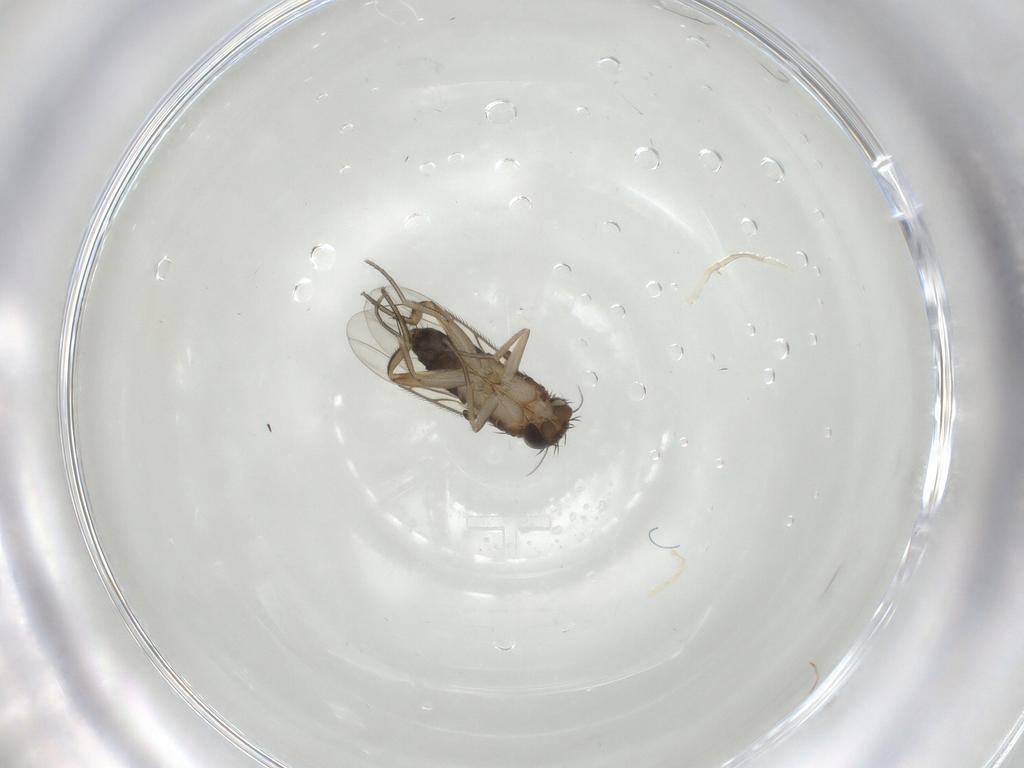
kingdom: Animalia
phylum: Arthropoda
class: Insecta
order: Diptera
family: Phoridae
